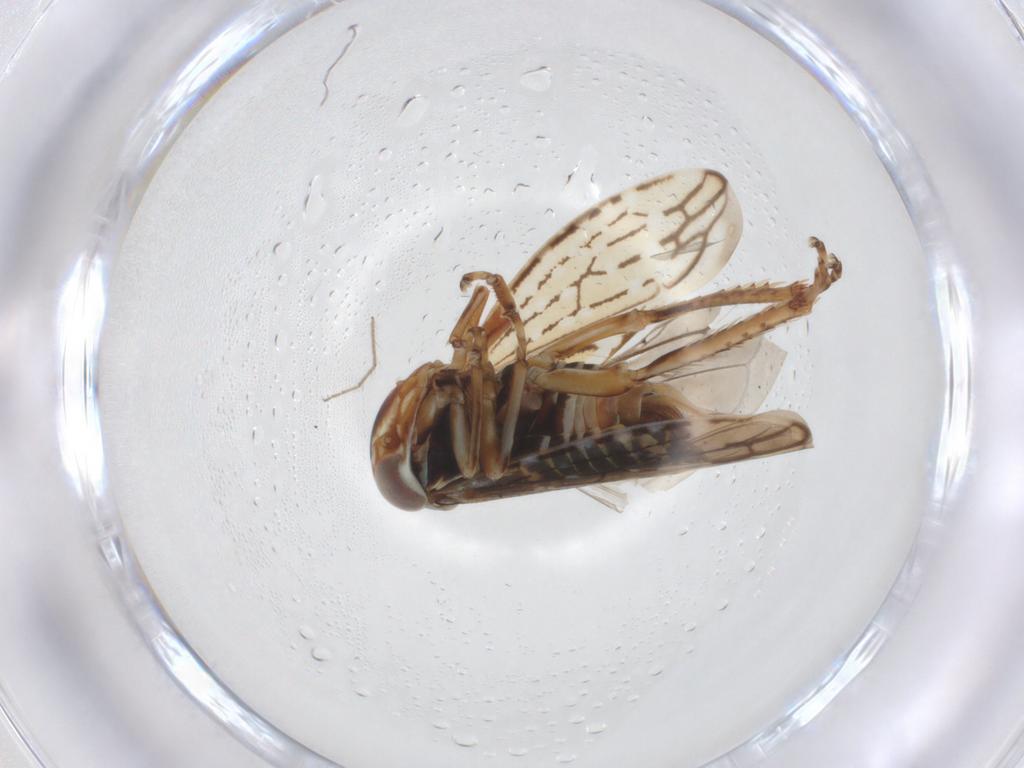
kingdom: Animalia
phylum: Arthropoda
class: Insecta
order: Hemiptera
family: Cicadellidae
